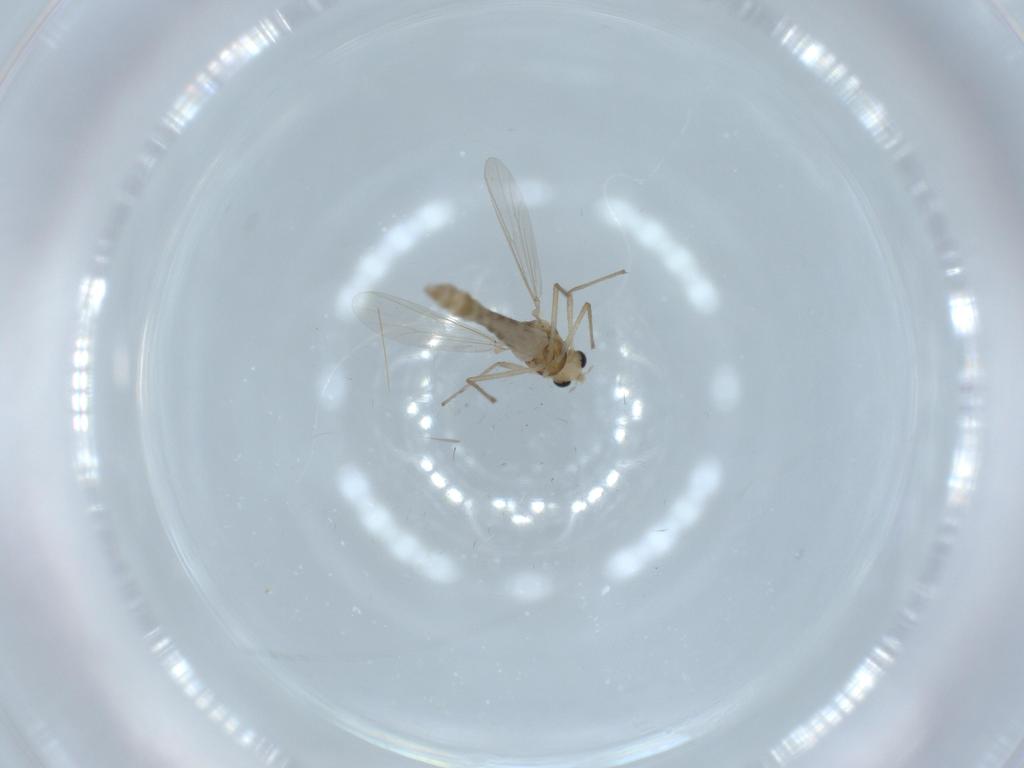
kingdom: Animalia
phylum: Arthropoda
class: Insecta
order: Diptera
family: Chironomidae
